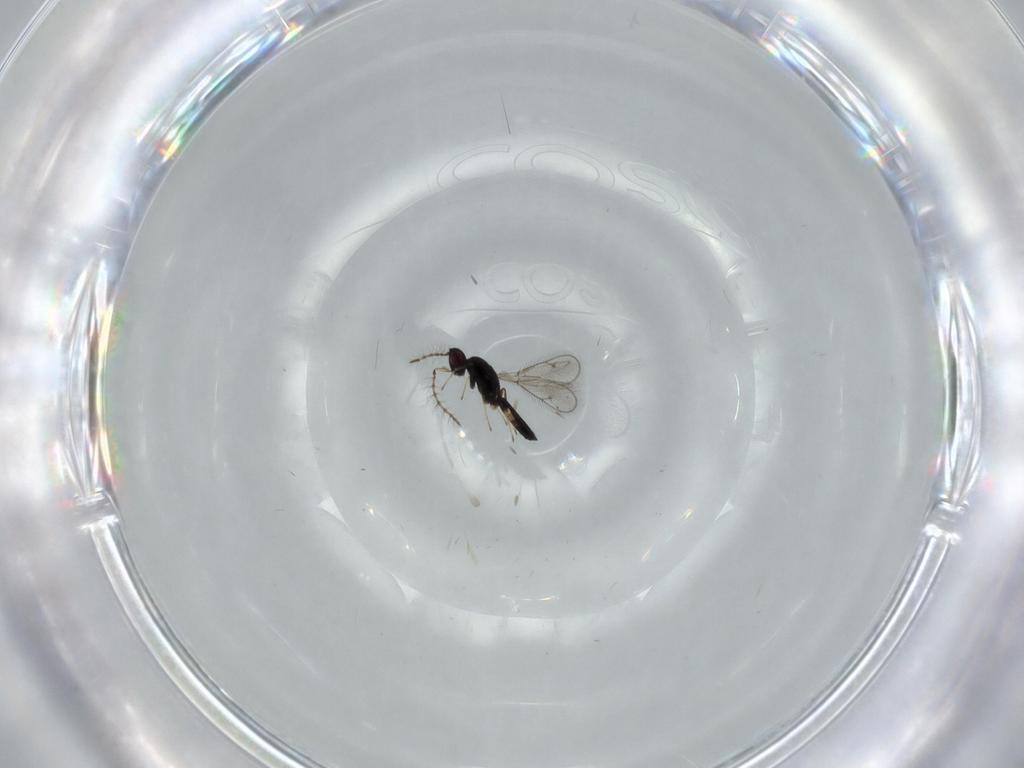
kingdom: Animalia
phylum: Arthropoda
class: Insecta
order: Hymenoptera
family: Pteromalidae
